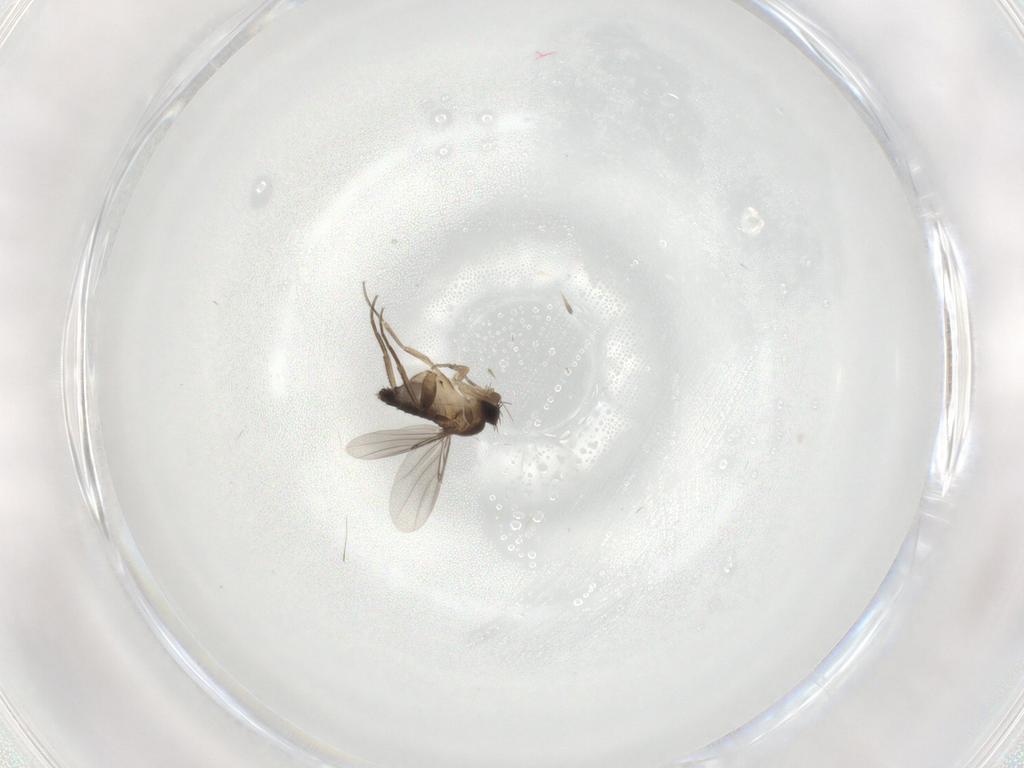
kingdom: Animalia
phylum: Arthropoda
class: Insecta
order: Diptera
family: Phoridae
